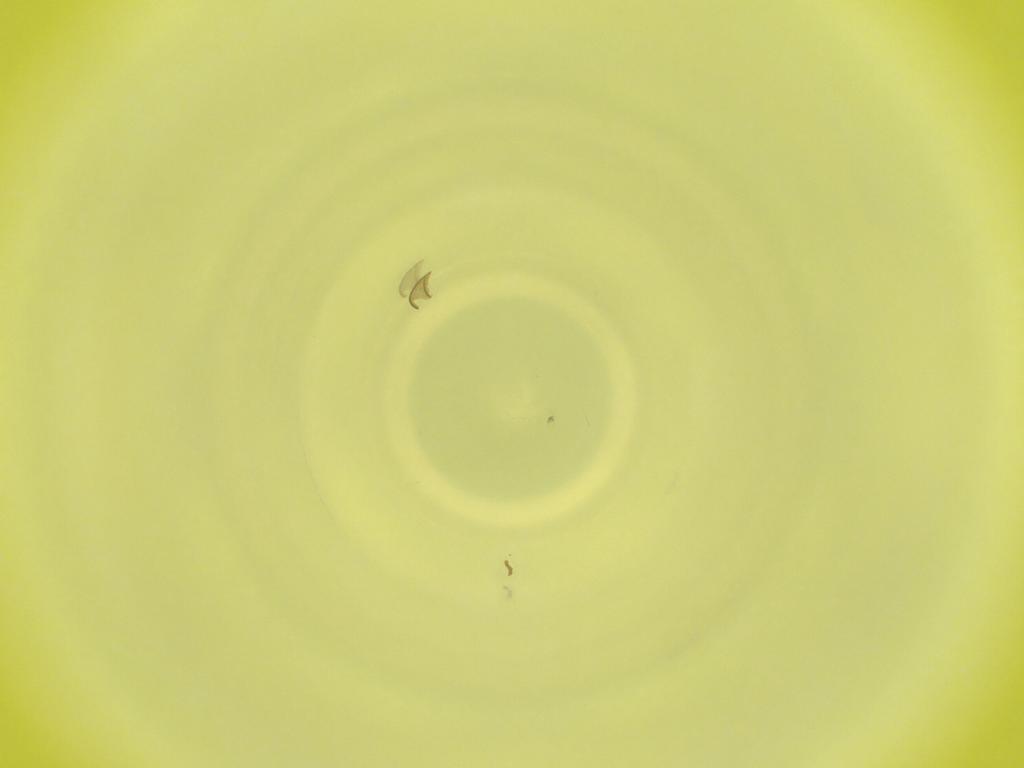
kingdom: Animalia
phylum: Arthropoda
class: Insecta
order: Diptera
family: Cecidomyiidae
